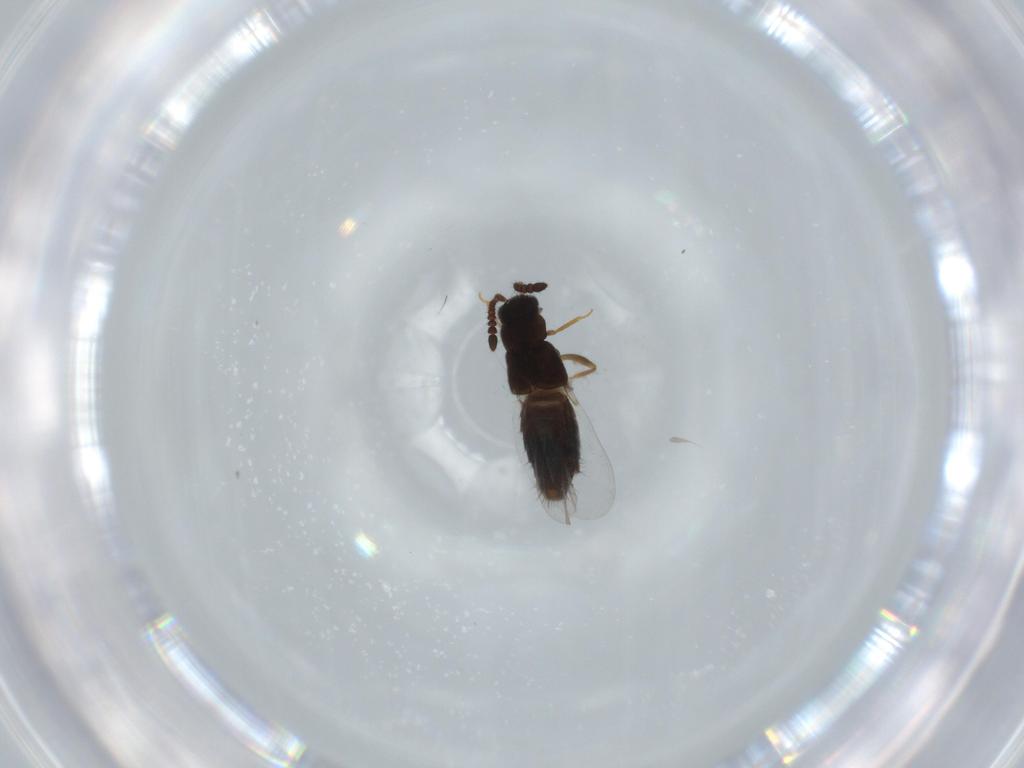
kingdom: Animalia
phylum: Arthropoda
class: Insecta
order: Coleoptera
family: Staphylinidae
